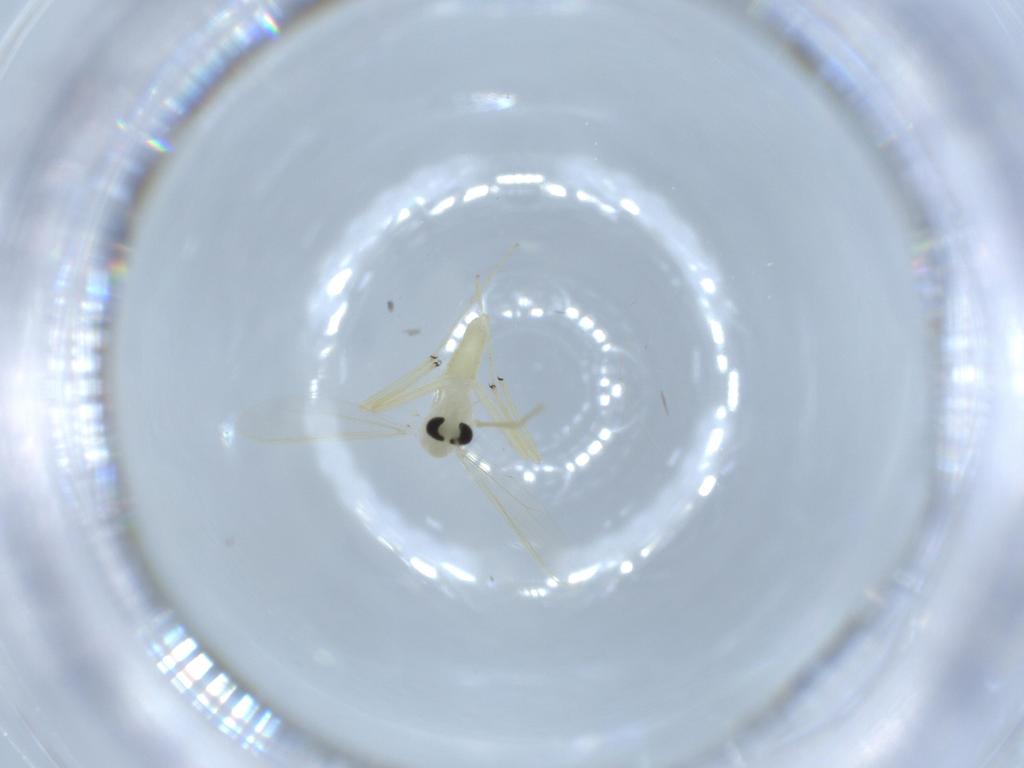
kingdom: Animalia
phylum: Arthropoda
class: Insecta
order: Diptera
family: Chironomidae
